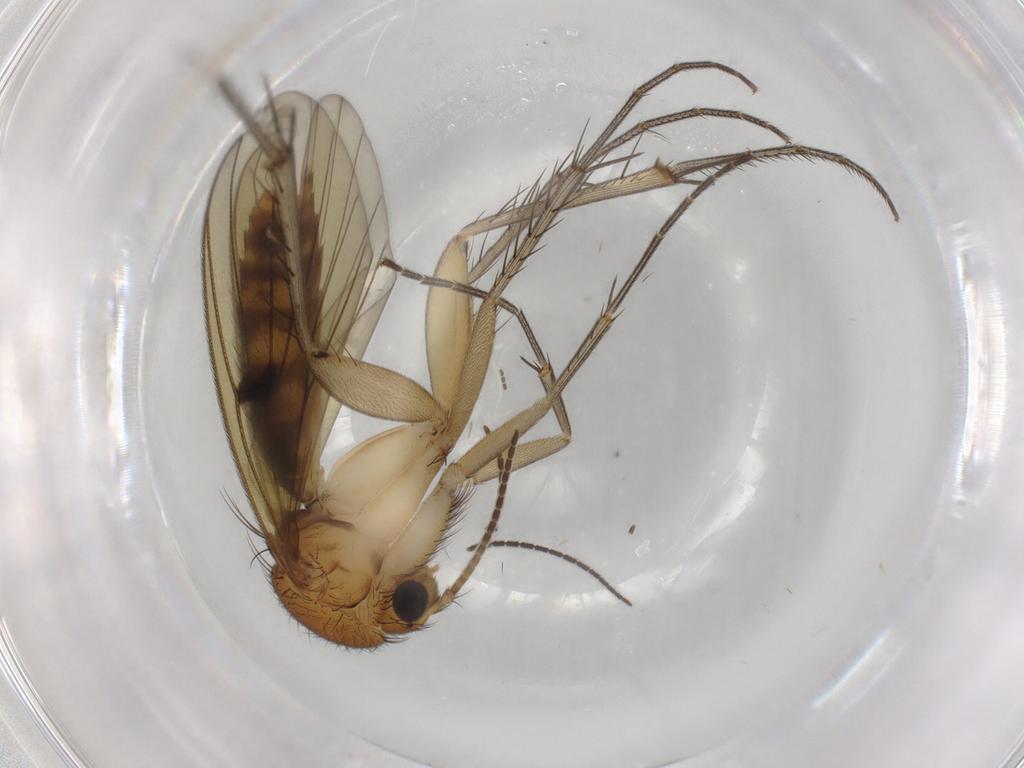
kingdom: Animalia
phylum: Arthropoda
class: Insecta
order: Diptera
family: Mycetophilidae
